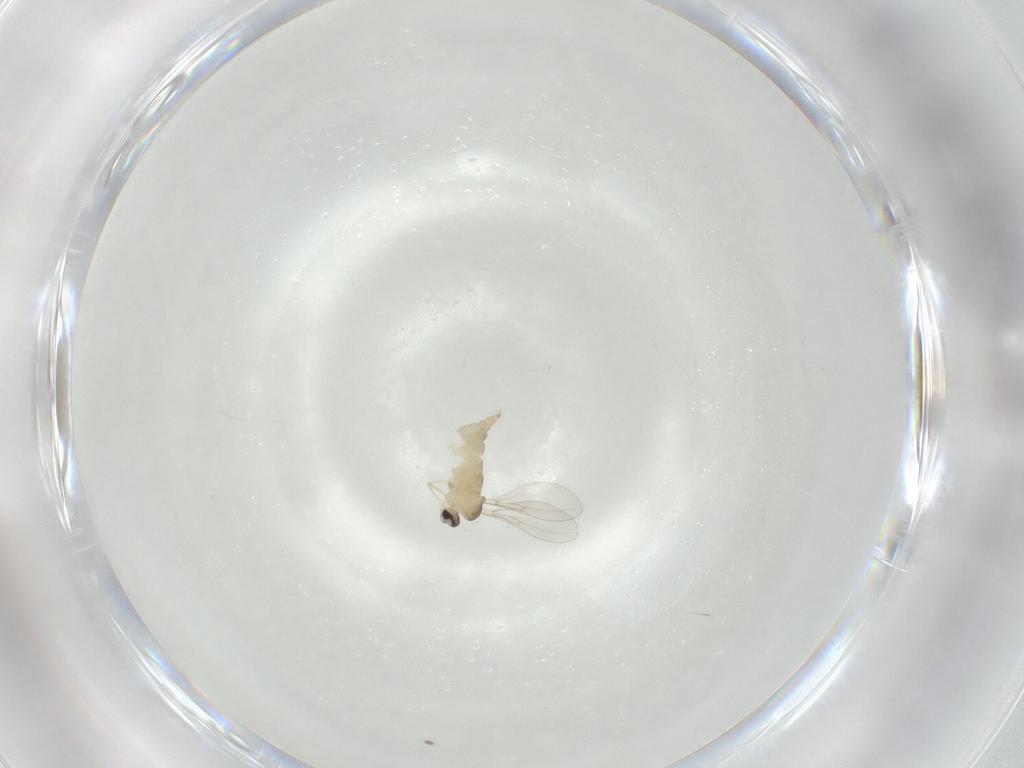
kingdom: Animalia
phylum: Arthropoda
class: Insecta
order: Diptera
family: Cecidomyiidae
